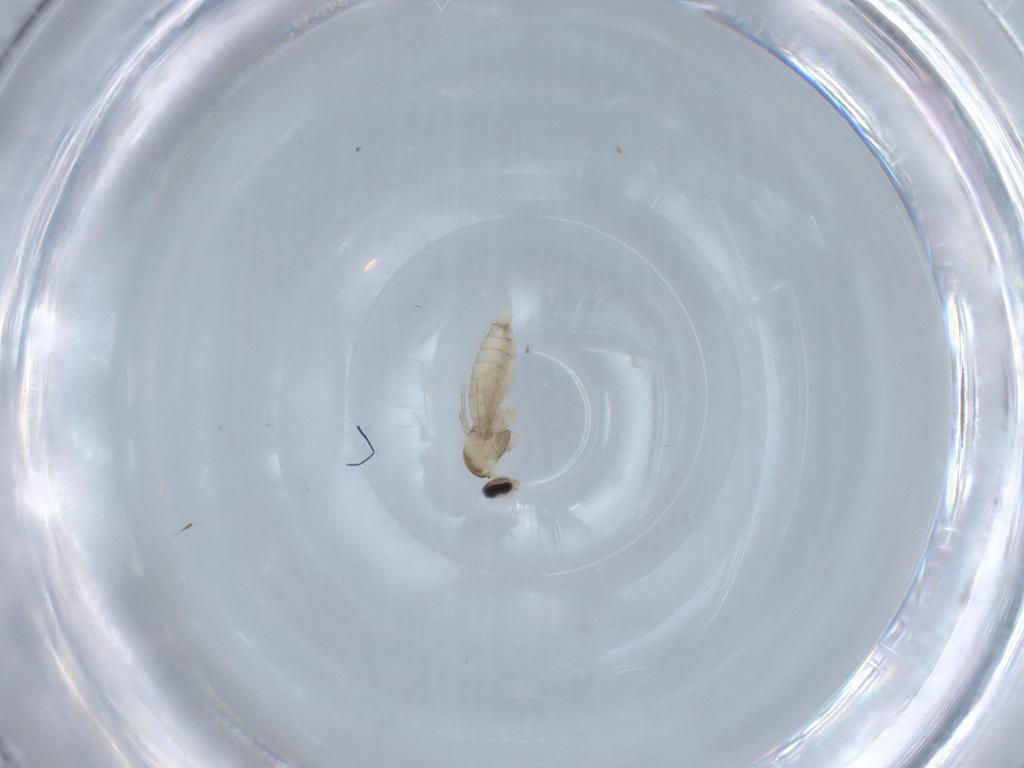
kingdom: Animalia
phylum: Arthropoda
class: Insecta
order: Diptera
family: Cecidomyiidae
